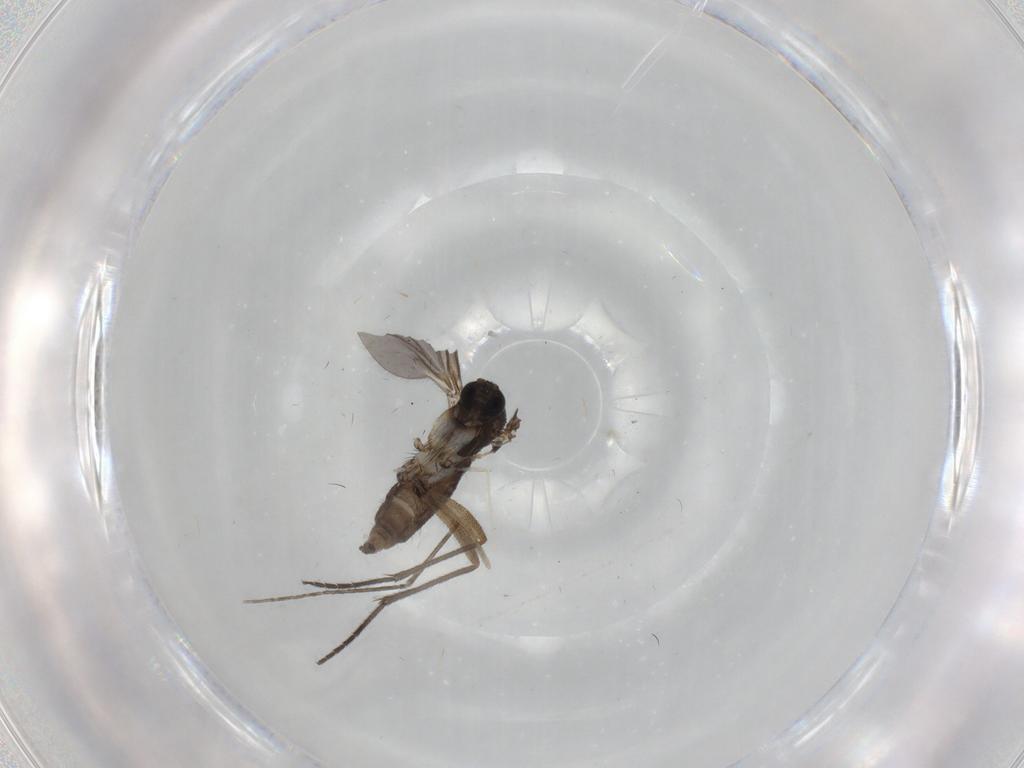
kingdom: Animalia
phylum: Arthropoda
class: Insecta
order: Diptera
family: Sciaridae
